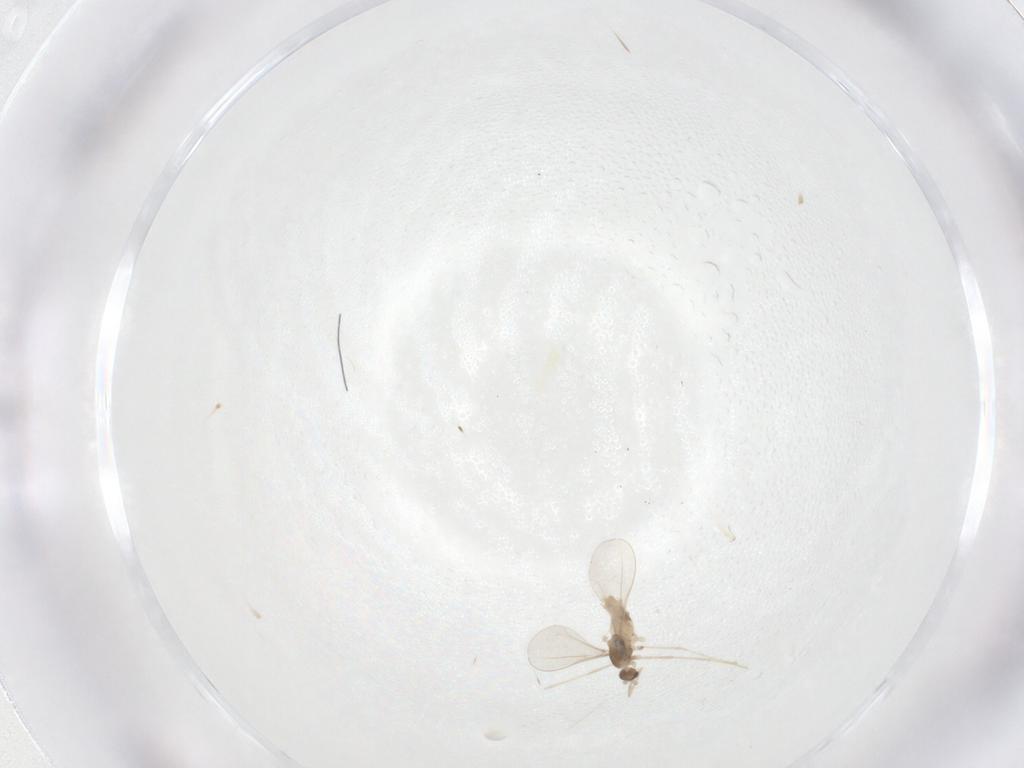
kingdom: Animalia
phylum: Arthropoda
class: Insecta
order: Diptera
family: Cecidomyiidae
